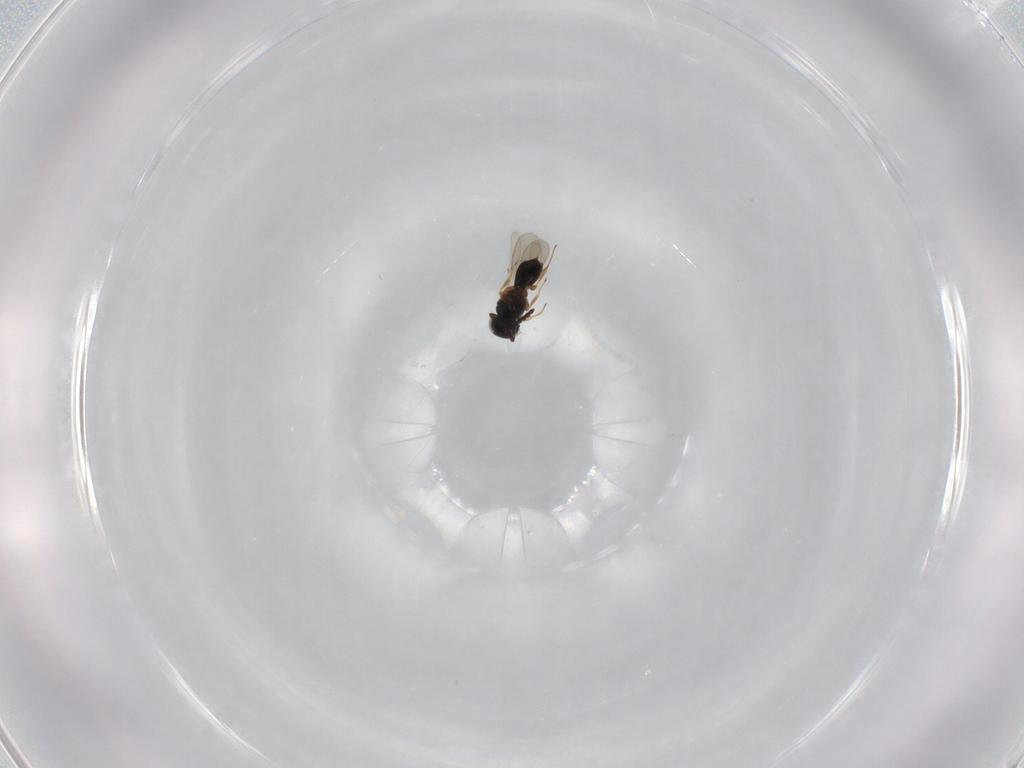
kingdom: Animalia
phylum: Arthropoda
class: Insecta
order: Hymenoptera
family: Scelionidae
